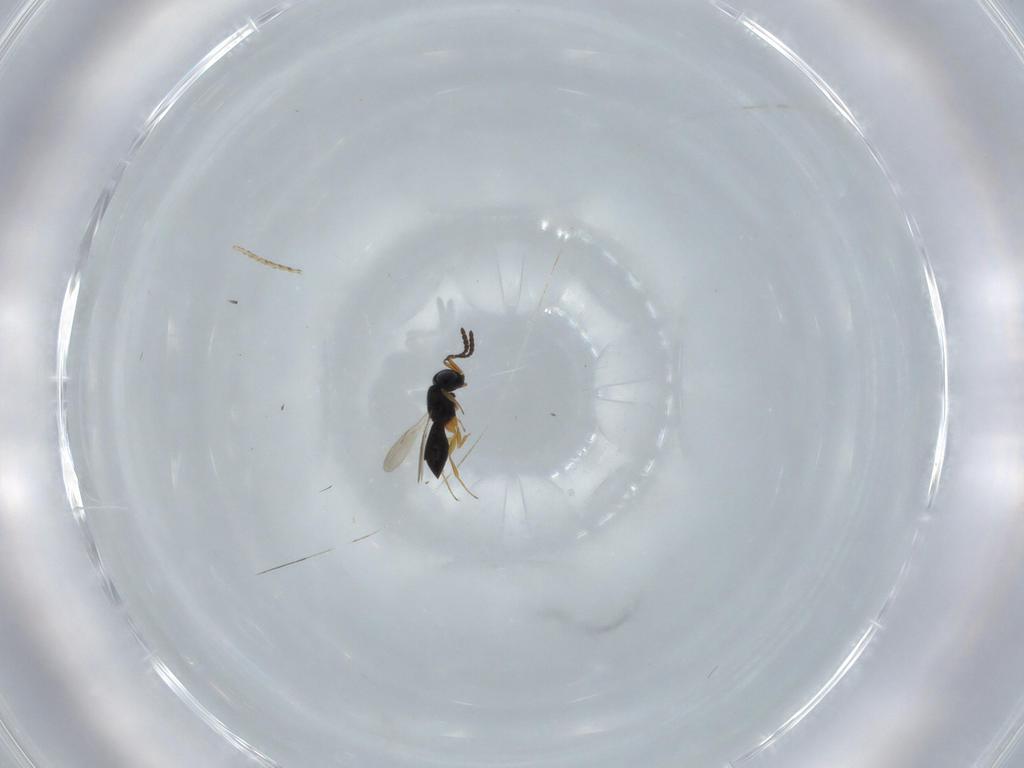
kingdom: Animalia
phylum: Arthropoda
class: Insecta
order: Hymenoptera
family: Scelionidae
